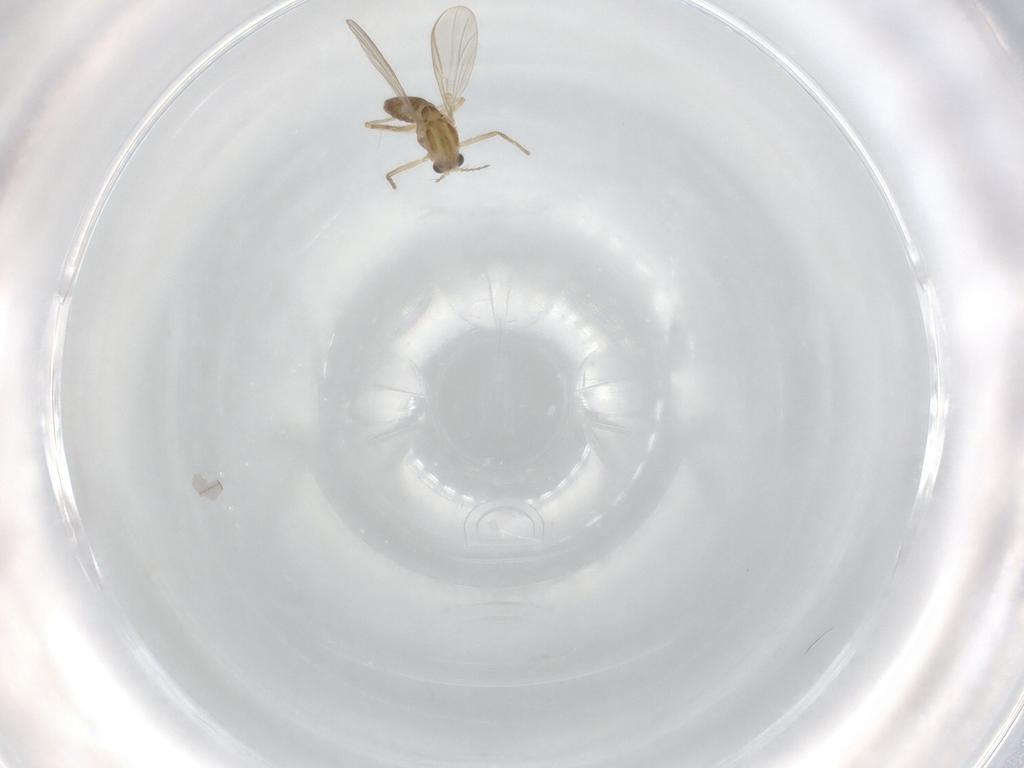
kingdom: Animalia
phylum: Arthropoda
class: Insecta
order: Diptera
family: Chironomidae
